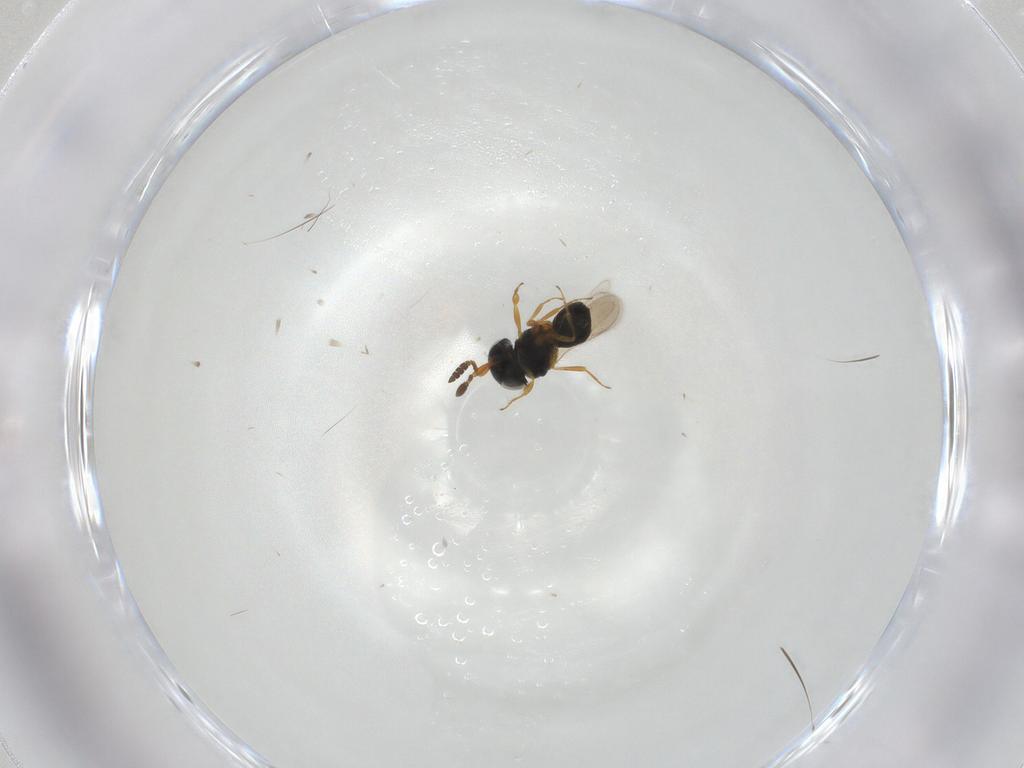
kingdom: Animalia
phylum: Arthropoda
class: Insecta
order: Hymenoptera
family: Scelionidae
